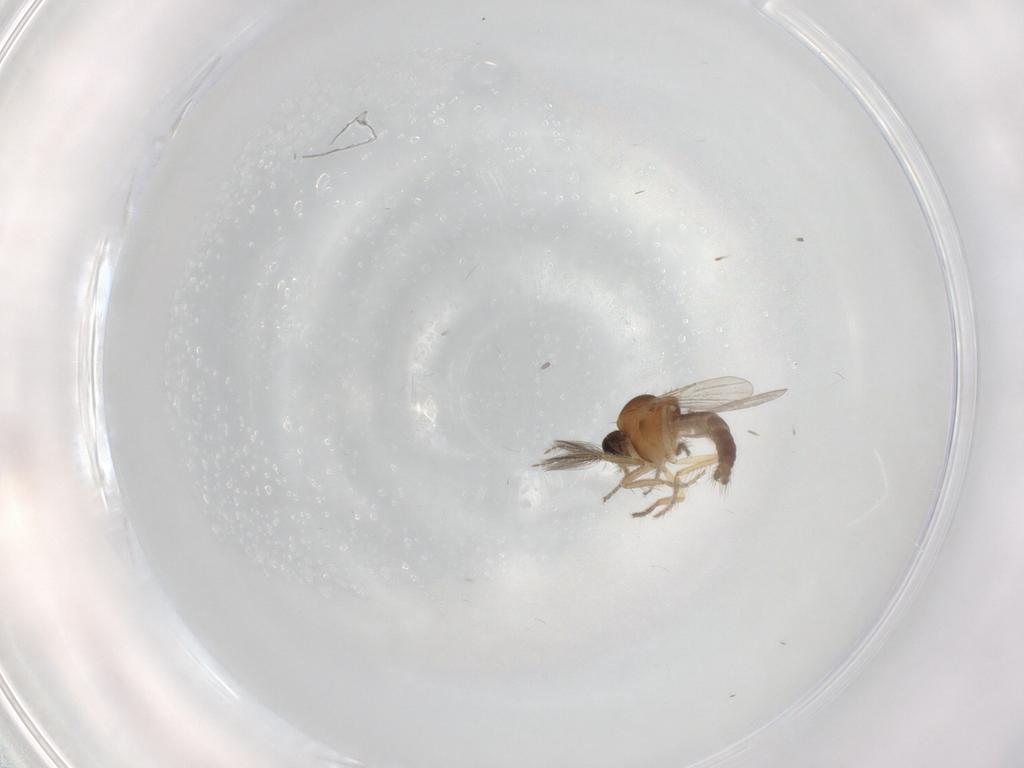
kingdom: Animalia
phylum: Arthropoda
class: Insecta
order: Diptera
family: Ceratopogonidae
